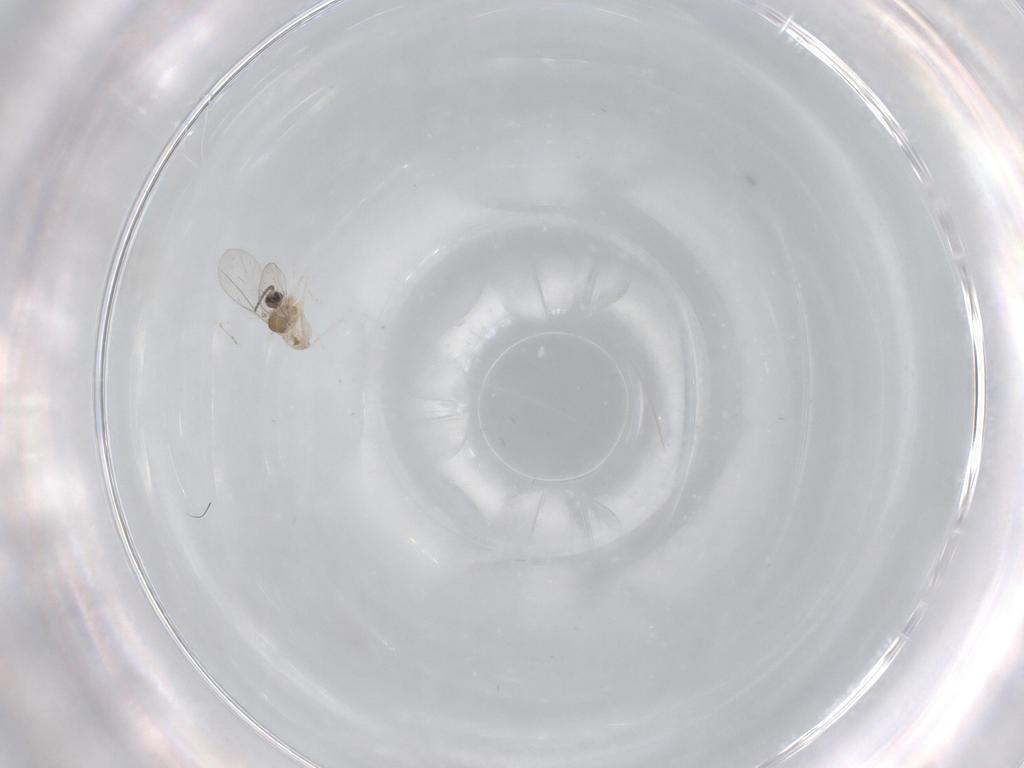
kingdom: Animalia
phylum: Arthropoda
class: Insecta
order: Diptera
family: Cecidomyiidae
